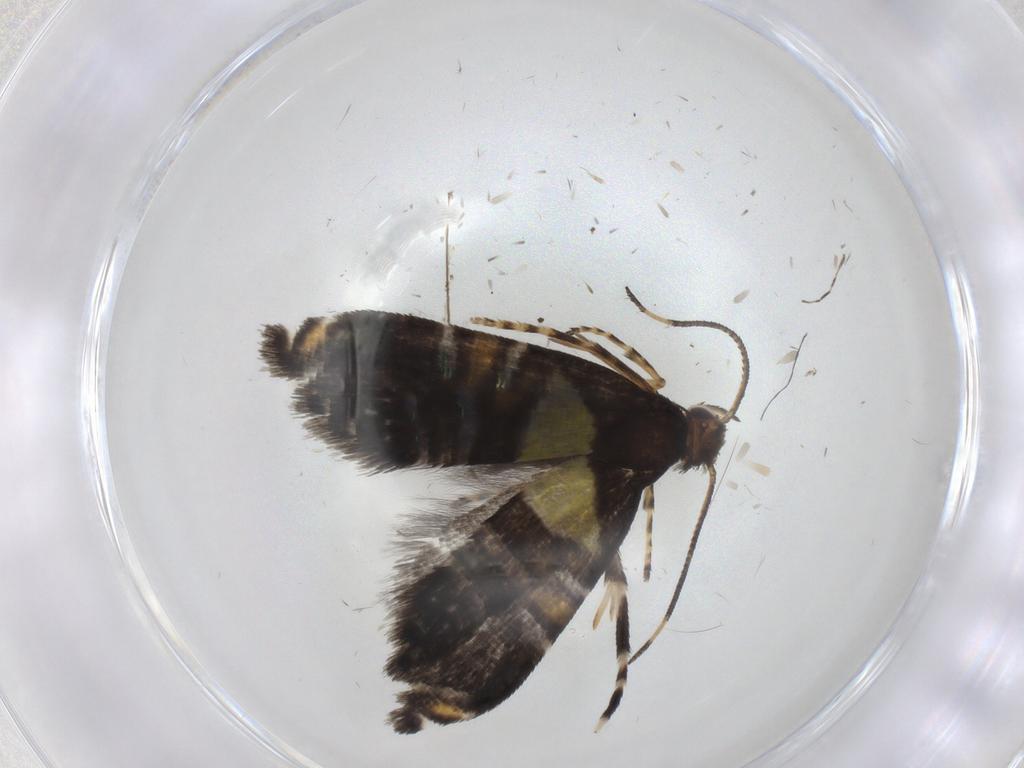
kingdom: Animalia
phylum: Arthropoda
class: Insecta
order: Lepidoptera
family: Glyphipterigidae
